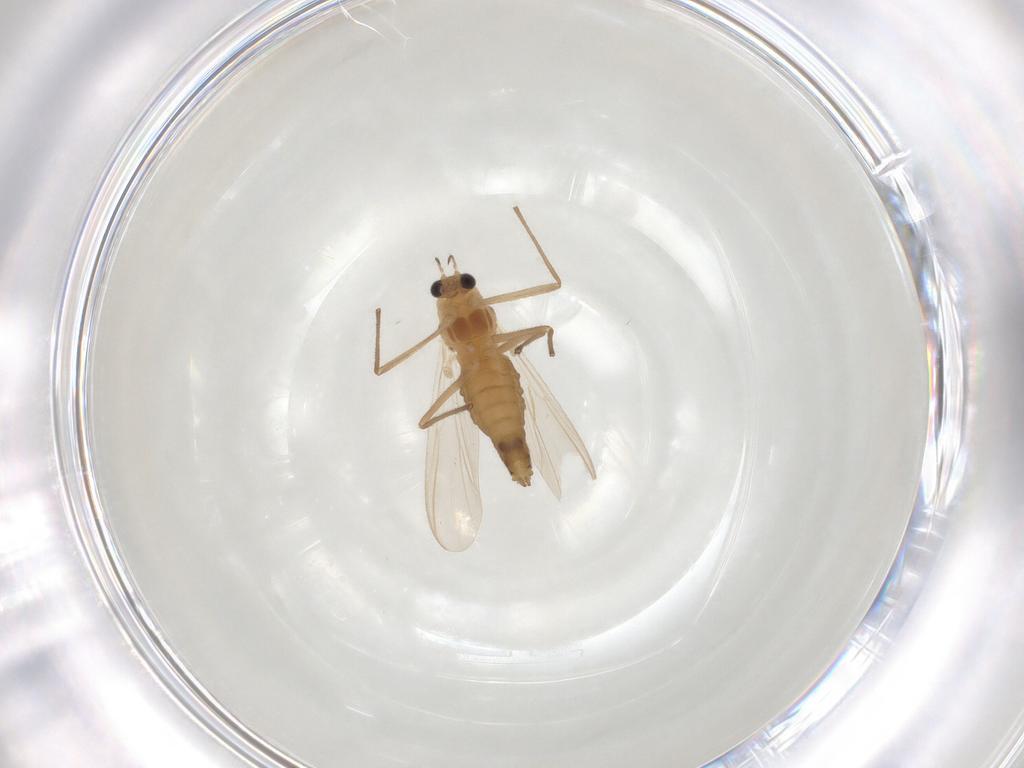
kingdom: Animalia
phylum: Arthropoda
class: Insecta
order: Diptera
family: Chironomidae
